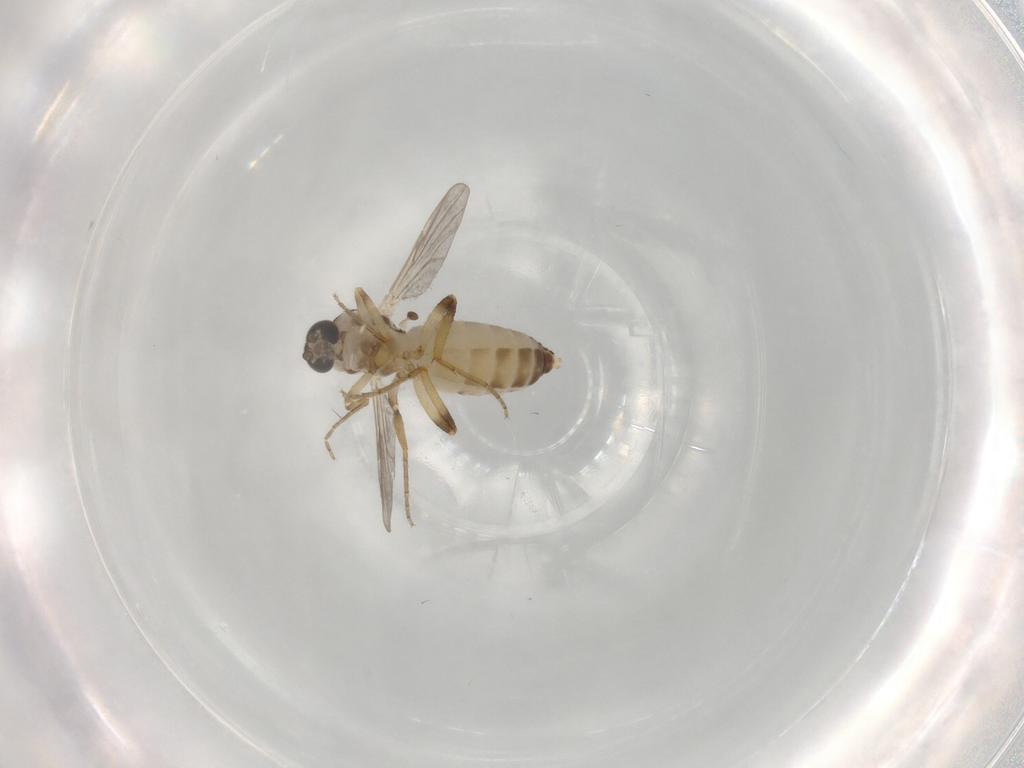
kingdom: Animalia
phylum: Arthropoda
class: Insecta
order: Diptera
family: Ceratopogonidae
